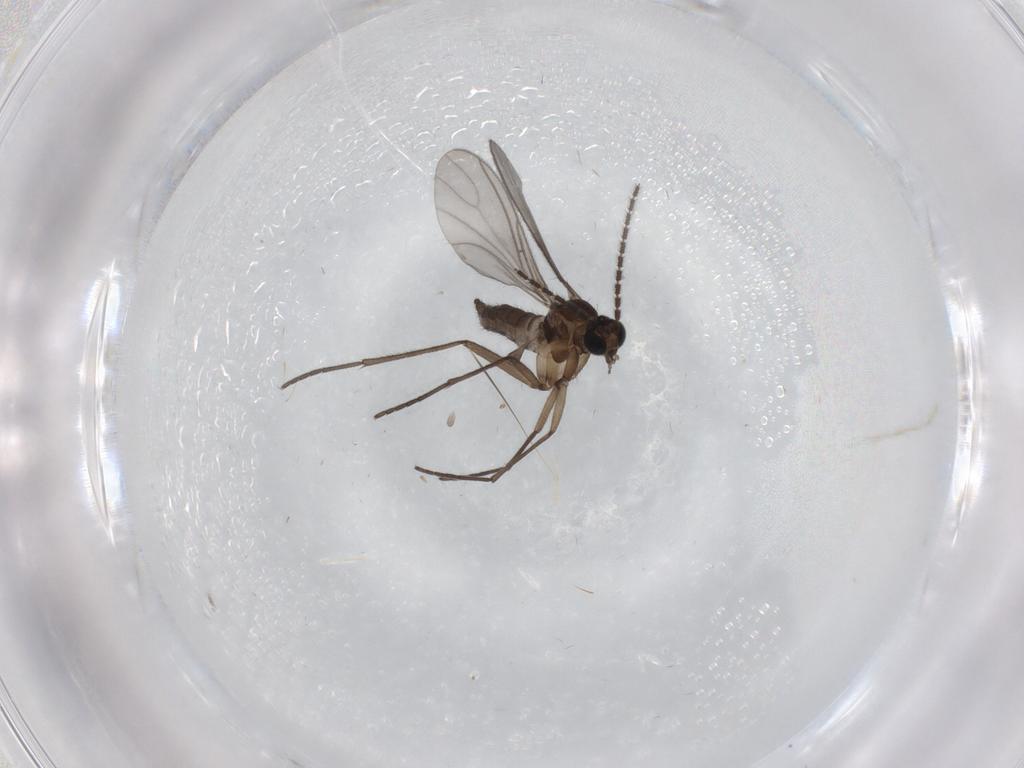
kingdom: Animalia
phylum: Arthropoda
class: Insecta
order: Diptera
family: Sciaridae
